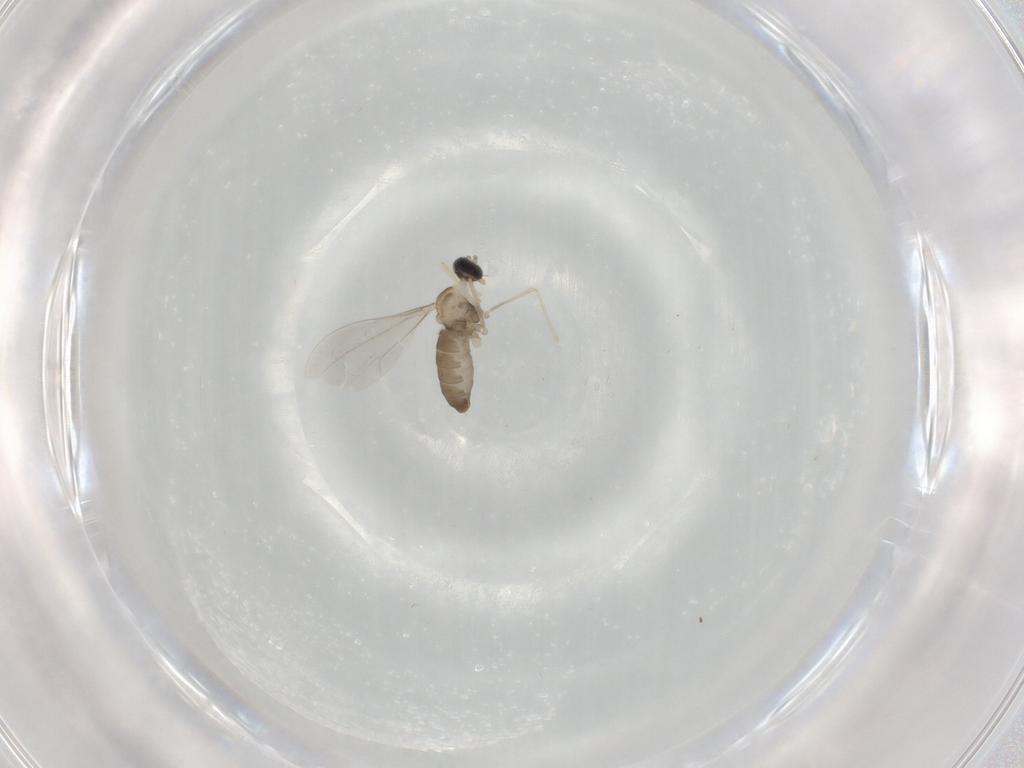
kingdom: Animalia
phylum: Arthropoda
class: Insecta
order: Diptera
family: Cecidomyiidae
